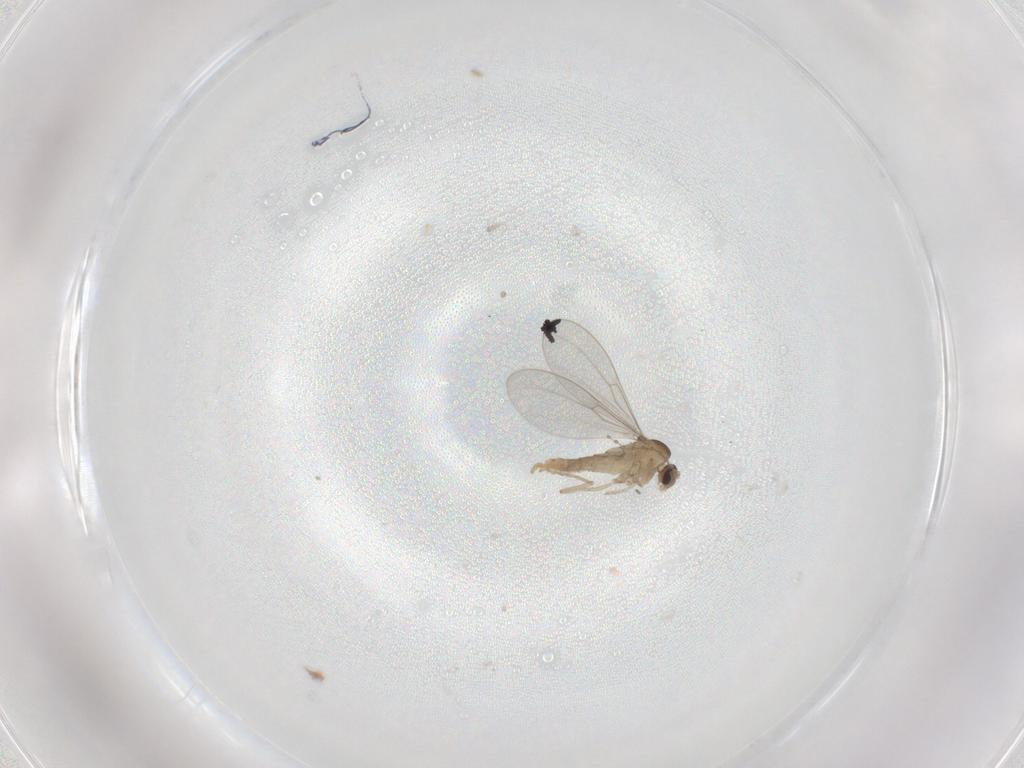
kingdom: Animalia
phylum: Arthropoda
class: Insecta
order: Diptera
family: Cecidomyiidae
